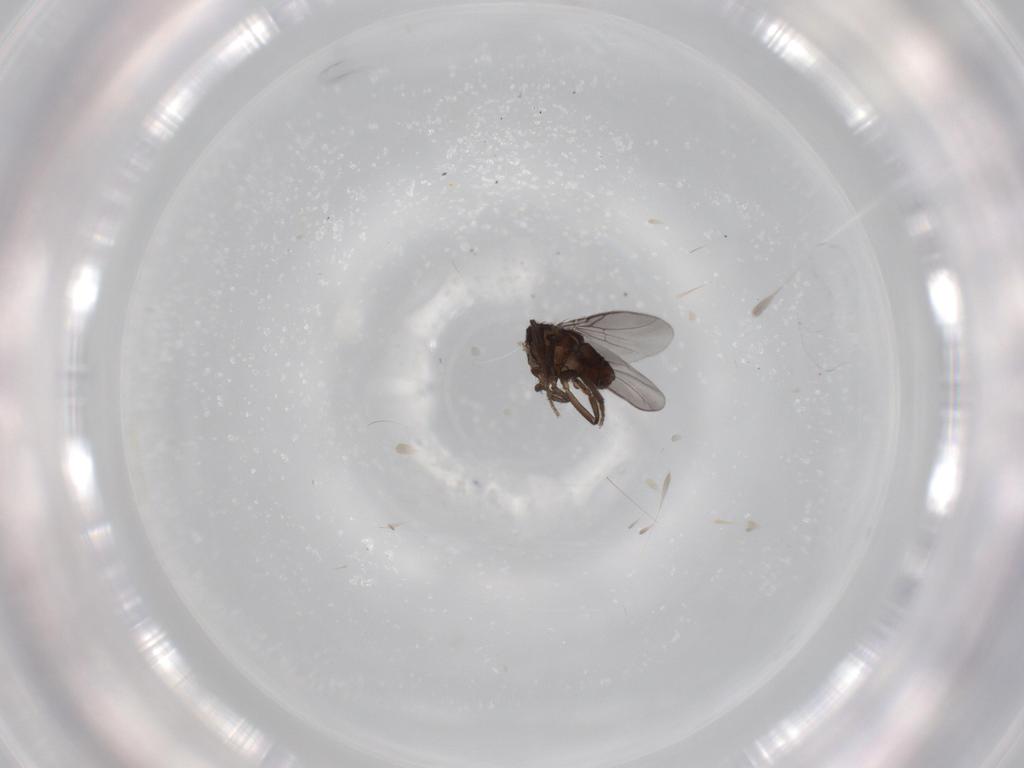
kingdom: Animalia
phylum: Arthropoda
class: Insecta
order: Diptera
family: Sphaeroceridae
